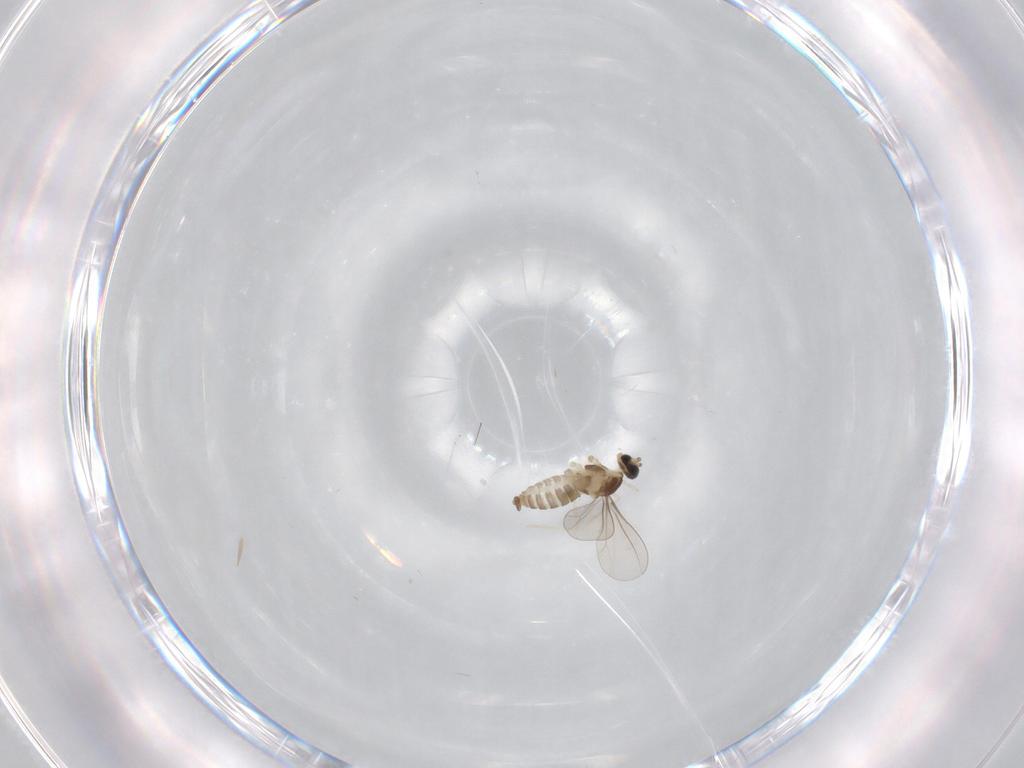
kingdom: Animalia
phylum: Arthropoda
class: Insecta
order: Diptera
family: Cecidomyiidae
